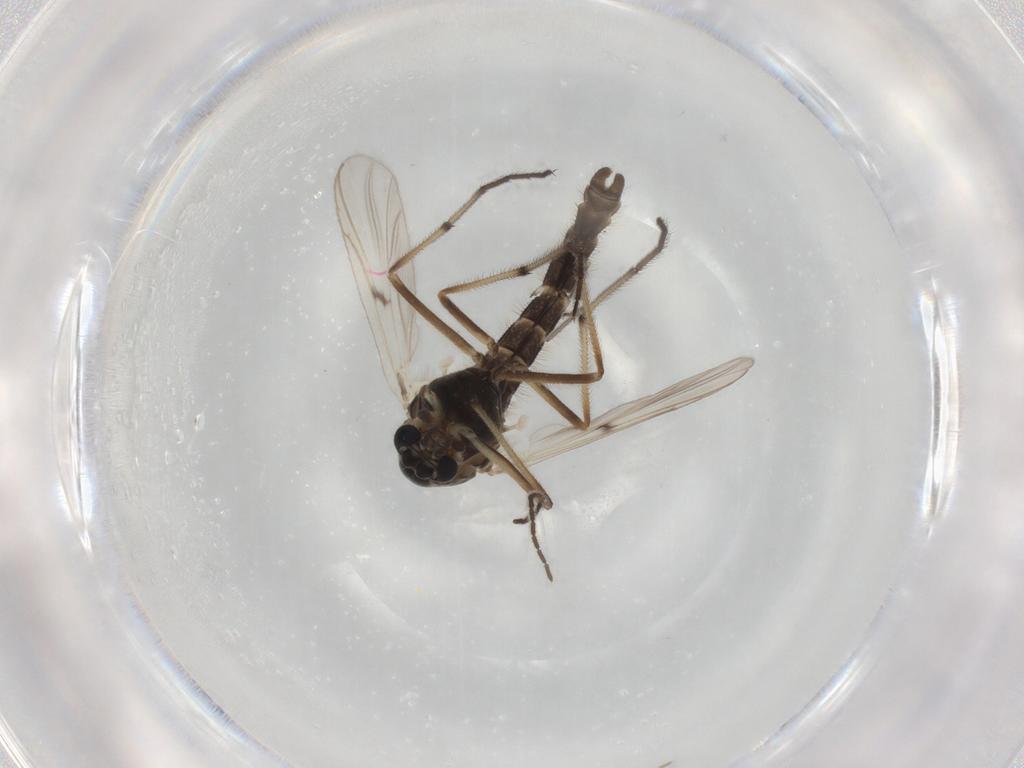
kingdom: Animalia
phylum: Arthropoda
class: Insecta
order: Diptera
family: Chironomidae
